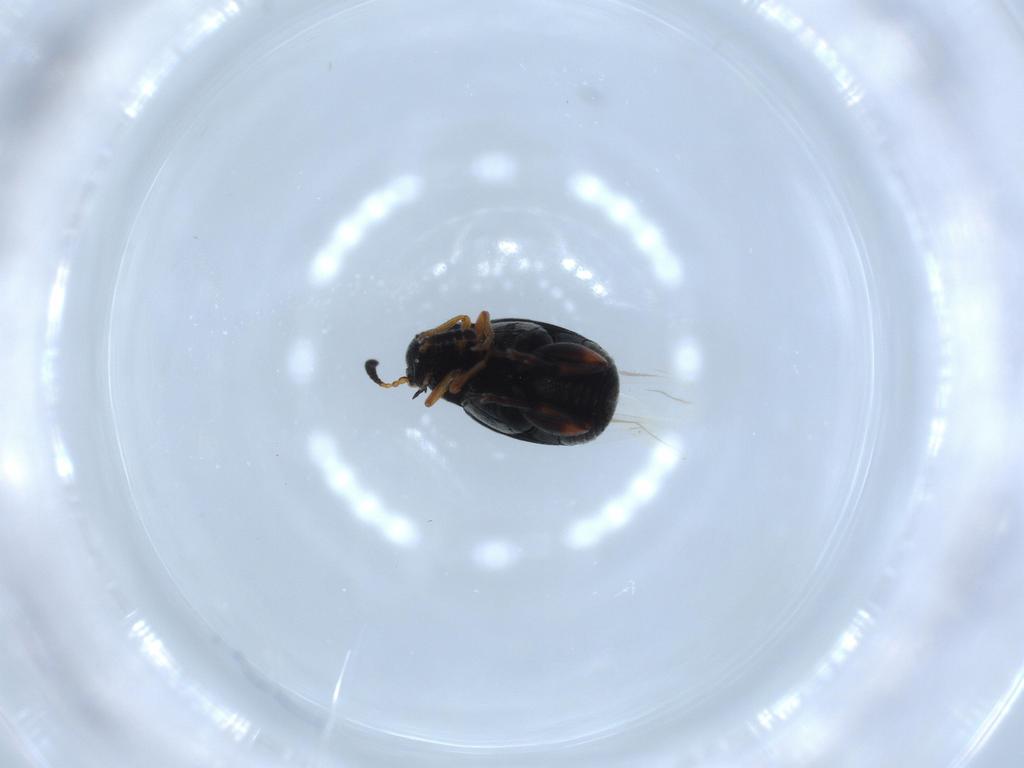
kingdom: Animalia
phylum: Arthropoda
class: Insecta
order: Coleoptera
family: Chrysomelidae
